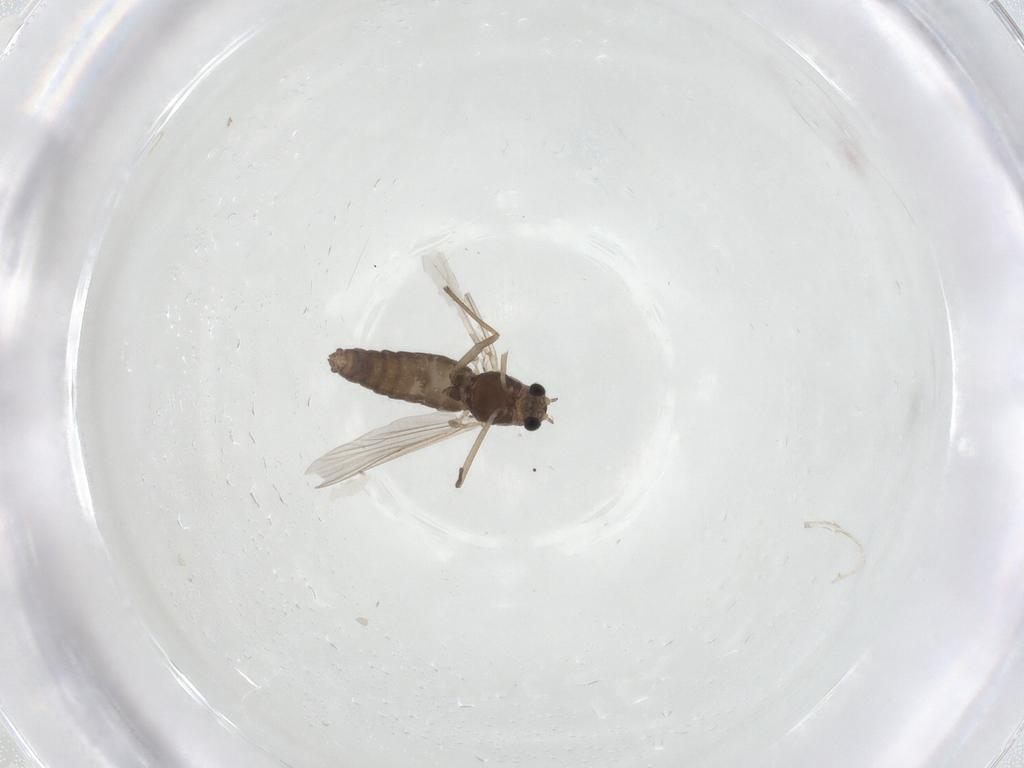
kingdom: Animalia
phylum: Arthropoda
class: Insecta
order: Diptera
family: Chironomidae
